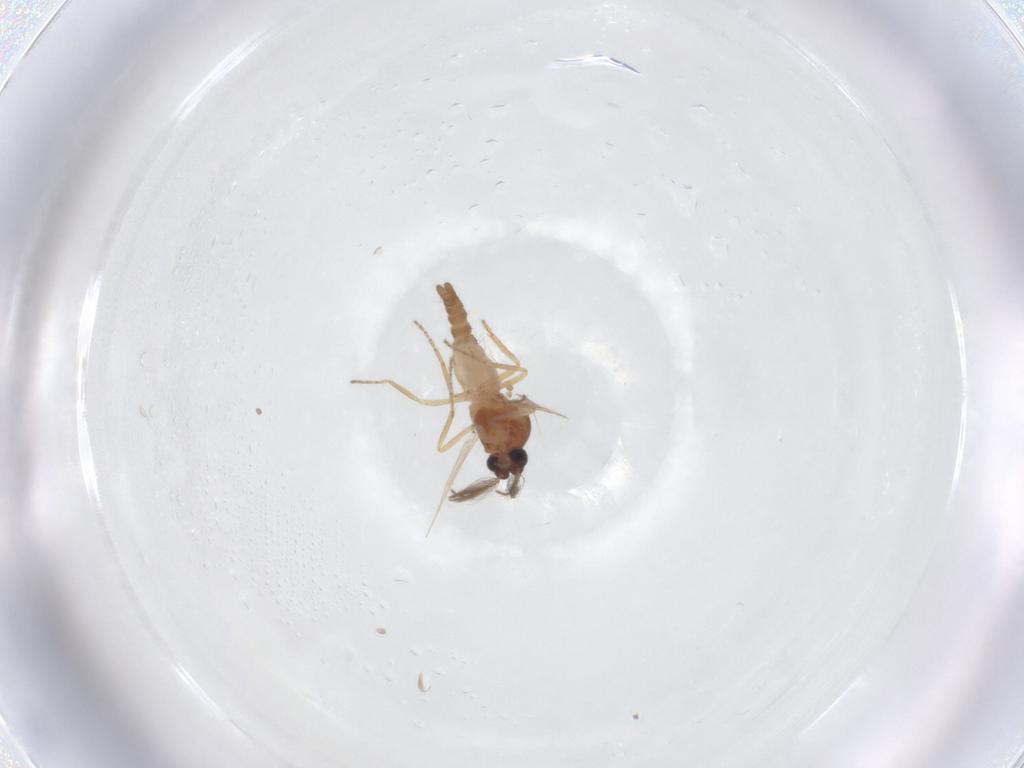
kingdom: Animalia
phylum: Arthropoda
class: Insecta
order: Diptera
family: Ceratopogonidae
